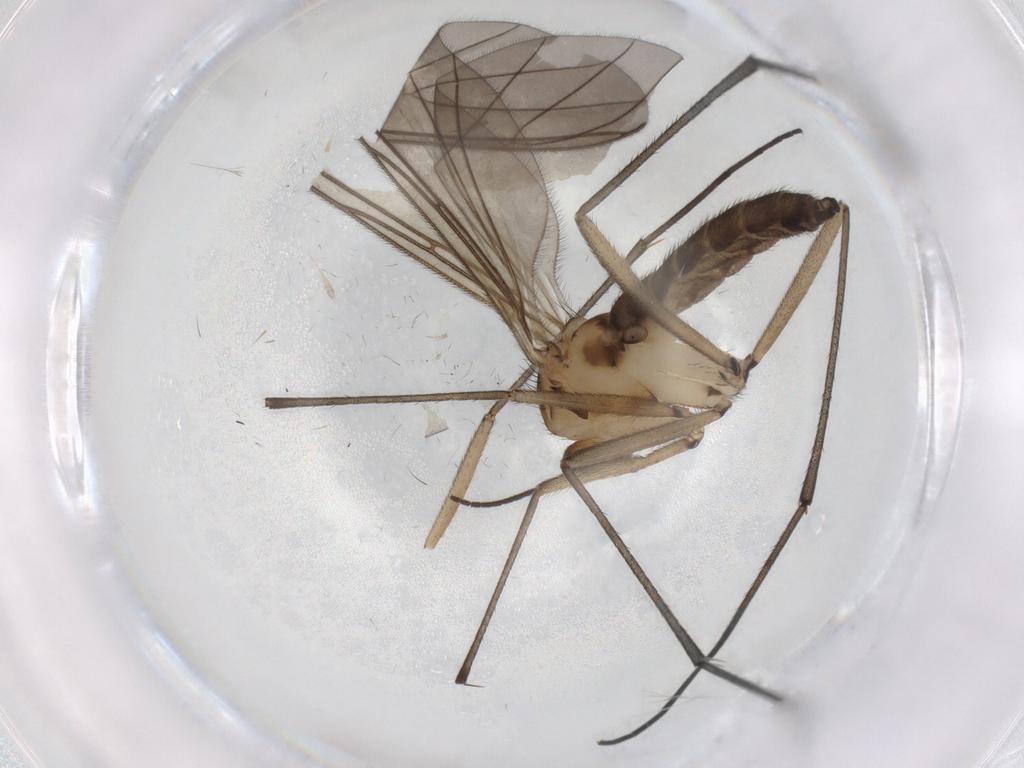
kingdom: Animalia
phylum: Arthropoda
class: Insecta
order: Diptera
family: Sciaridae
